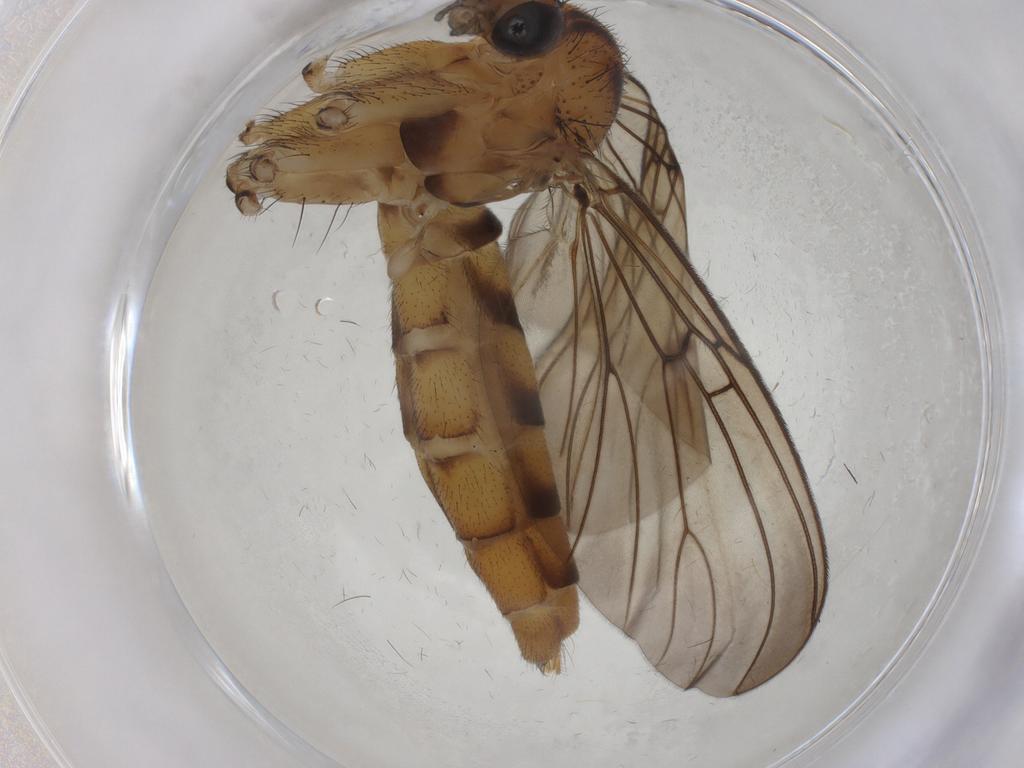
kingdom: Animalia
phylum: Arthropoda
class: Insecta
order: Diptera
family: Mycetophilidae
